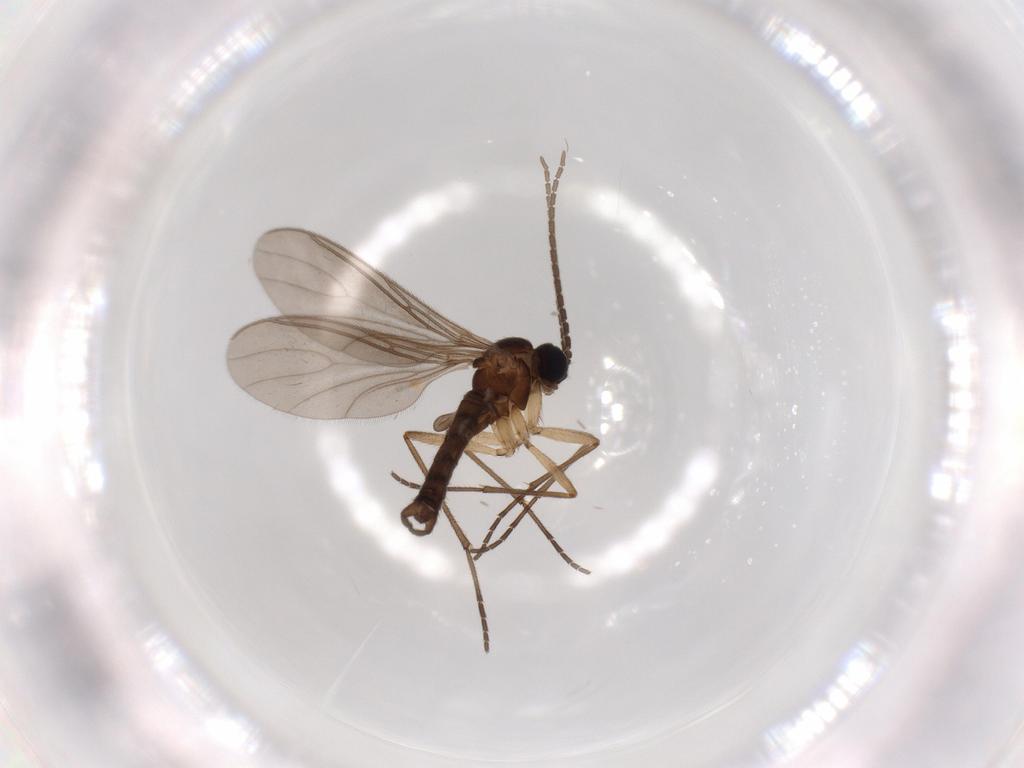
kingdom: Animalia
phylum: Arthropoda
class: Insecta
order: Diptera
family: Sciaridae
